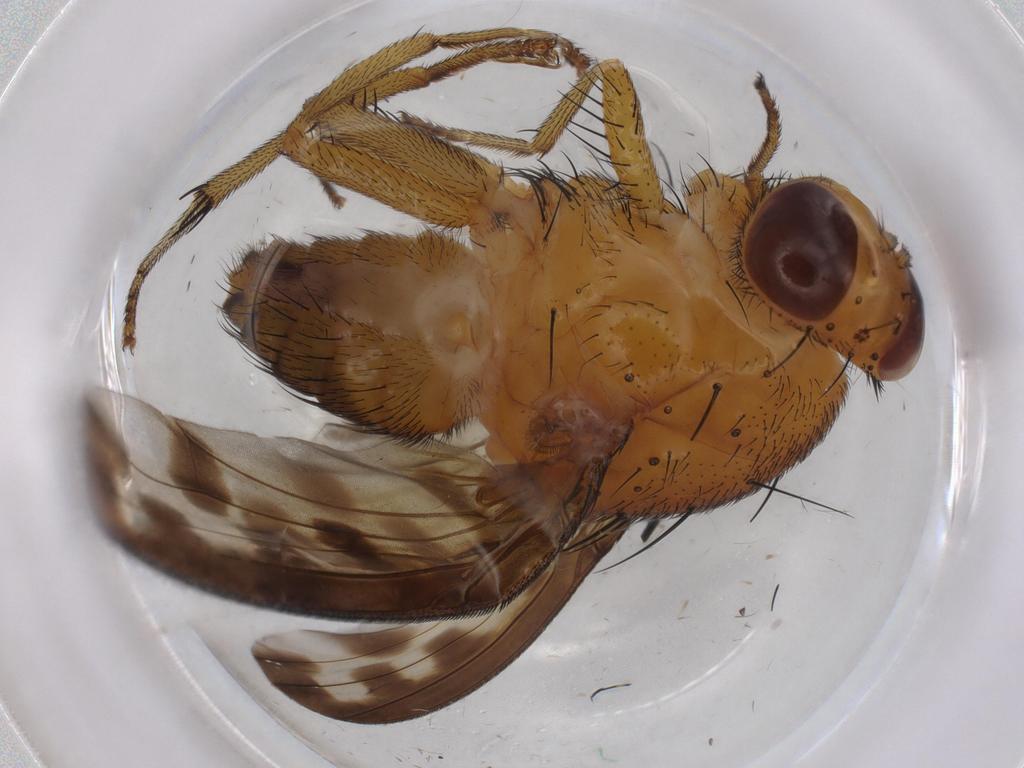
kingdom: Animalia
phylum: Arthropoda
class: Insecta
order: Diptera
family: Cecidomyiidae
